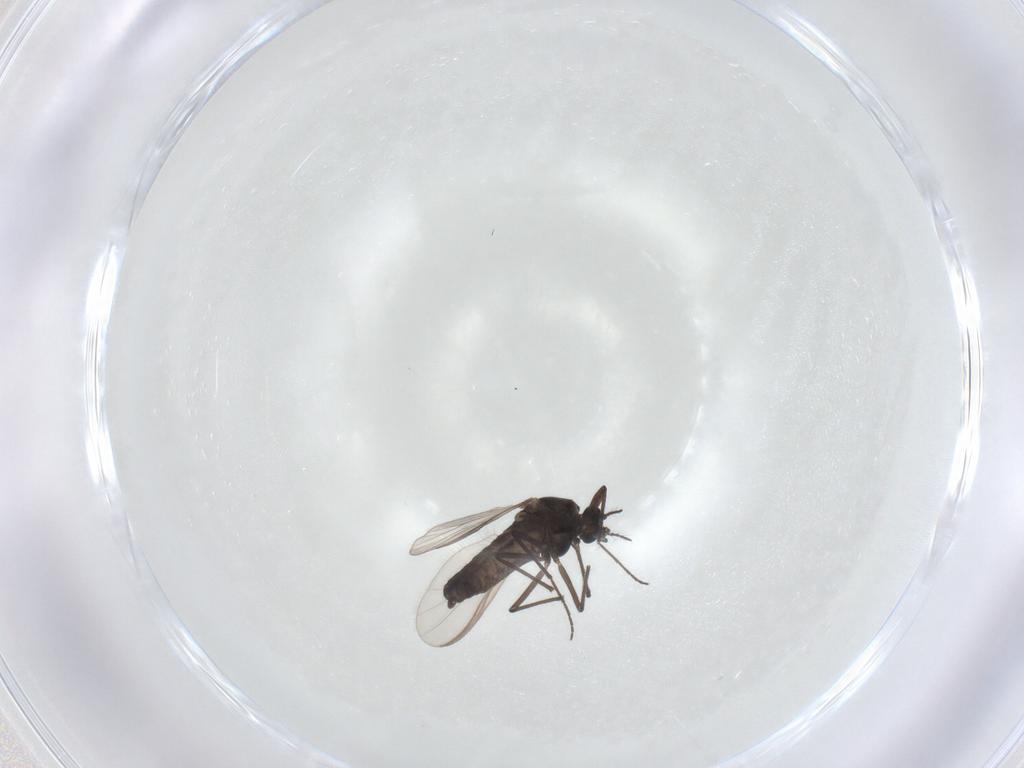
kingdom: Animalia
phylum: Arthropoda
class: Insecta
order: Diptera
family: Chironomidae
